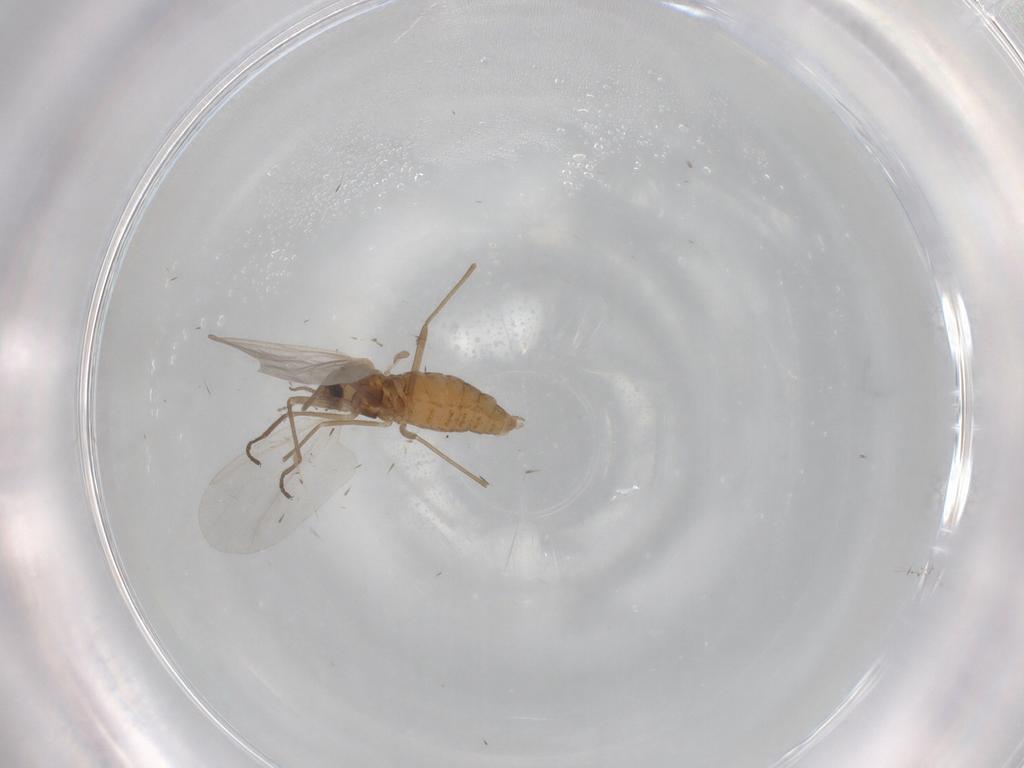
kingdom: Animalia
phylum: Arthropoda
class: Insecta
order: Diptera
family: Cecidomyiidae
